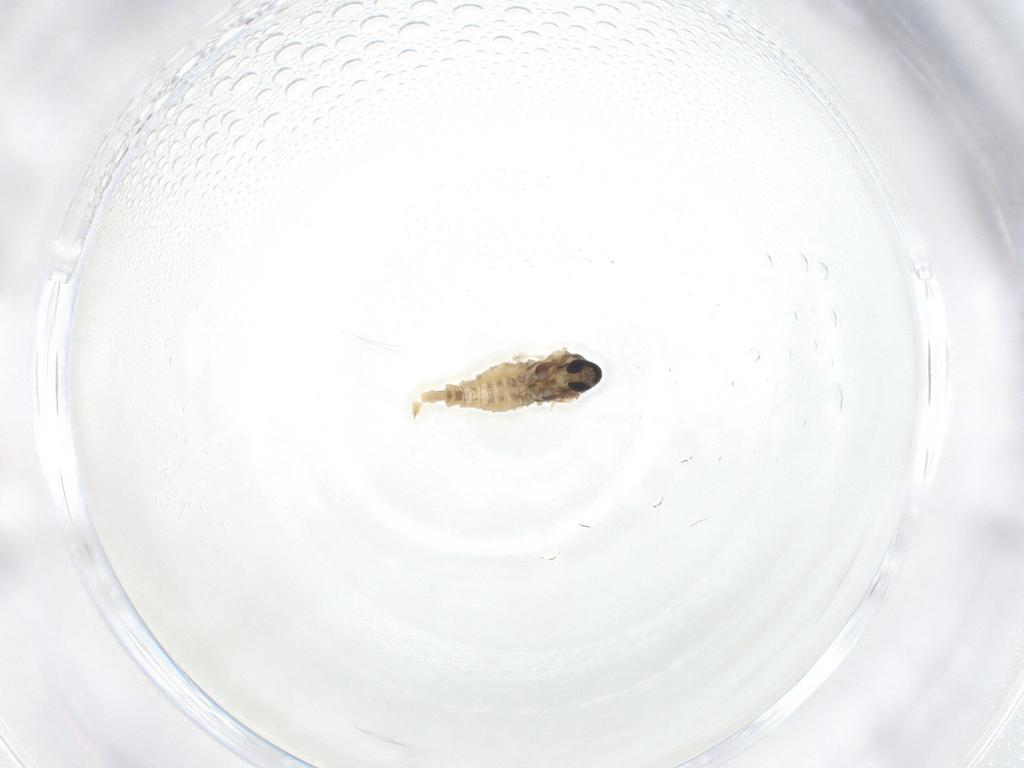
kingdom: Animalia
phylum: Arthropoda
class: Insecta
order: Diptera
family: Cecidomyiidae
